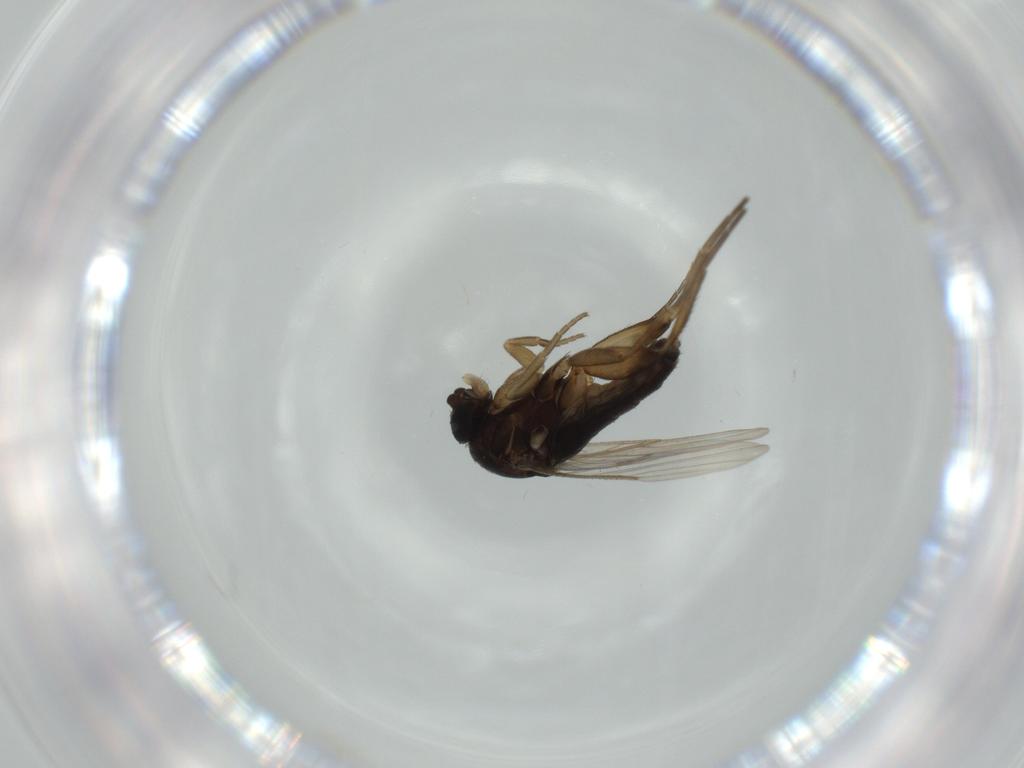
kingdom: Animalia
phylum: Arthropoda
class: Insecta
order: Diptera
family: Phoridae
